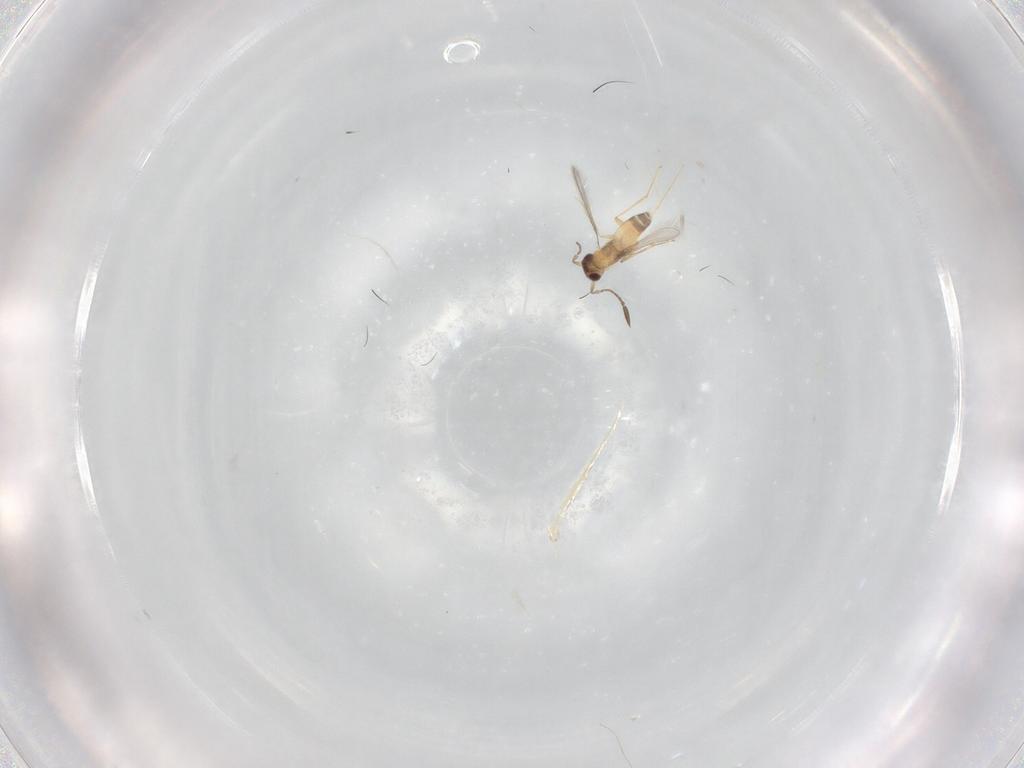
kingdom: Animalia
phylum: Arthropoda
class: Insecta
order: Hymenoptera
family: Mymaridae
